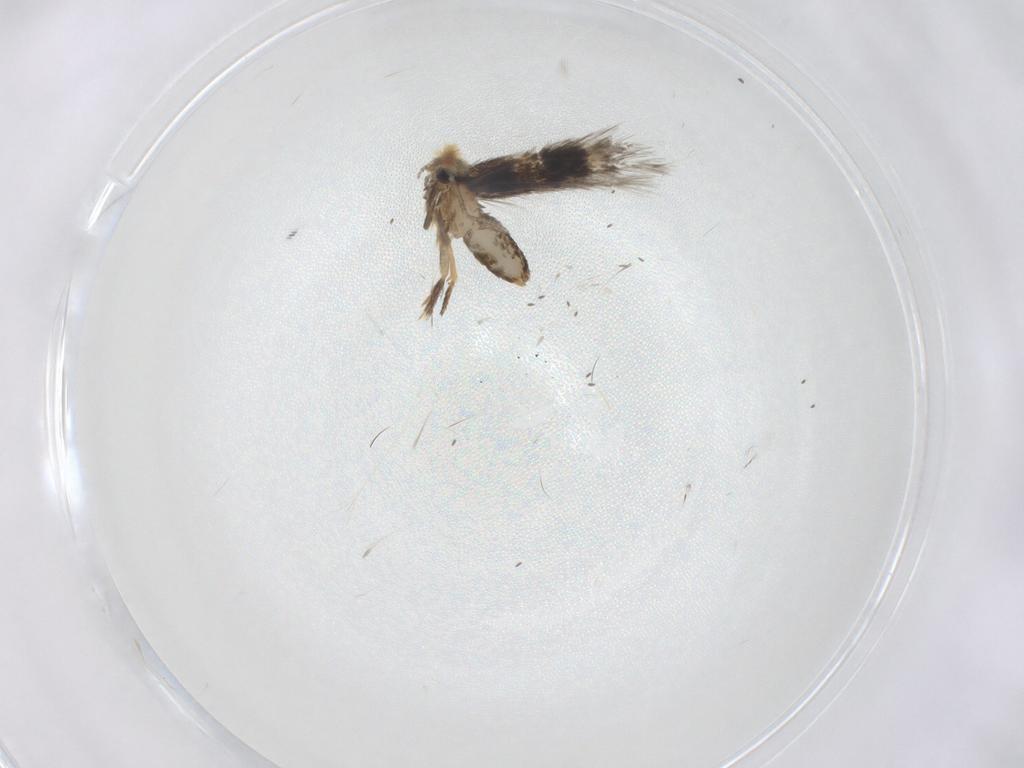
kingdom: Animalia
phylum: Arthropoda
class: Insecta
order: Lepidoptera
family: Nepticulidae
